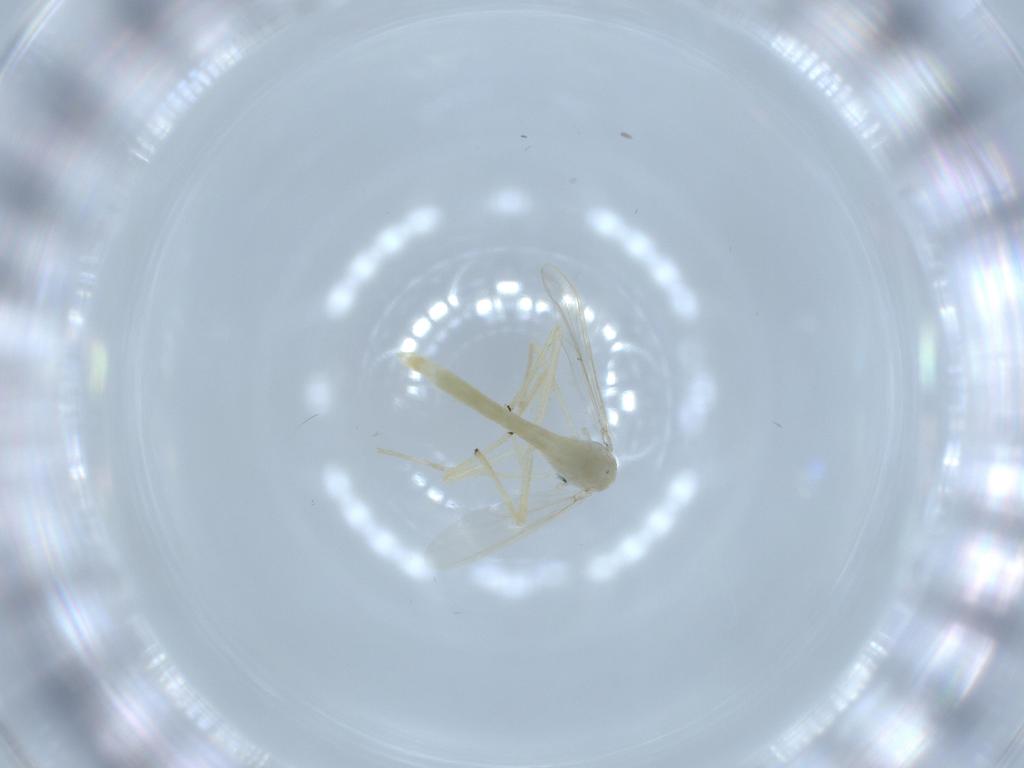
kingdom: Animalia
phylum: Arthropoda
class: Insecta
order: Diptera
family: Chironomidae
